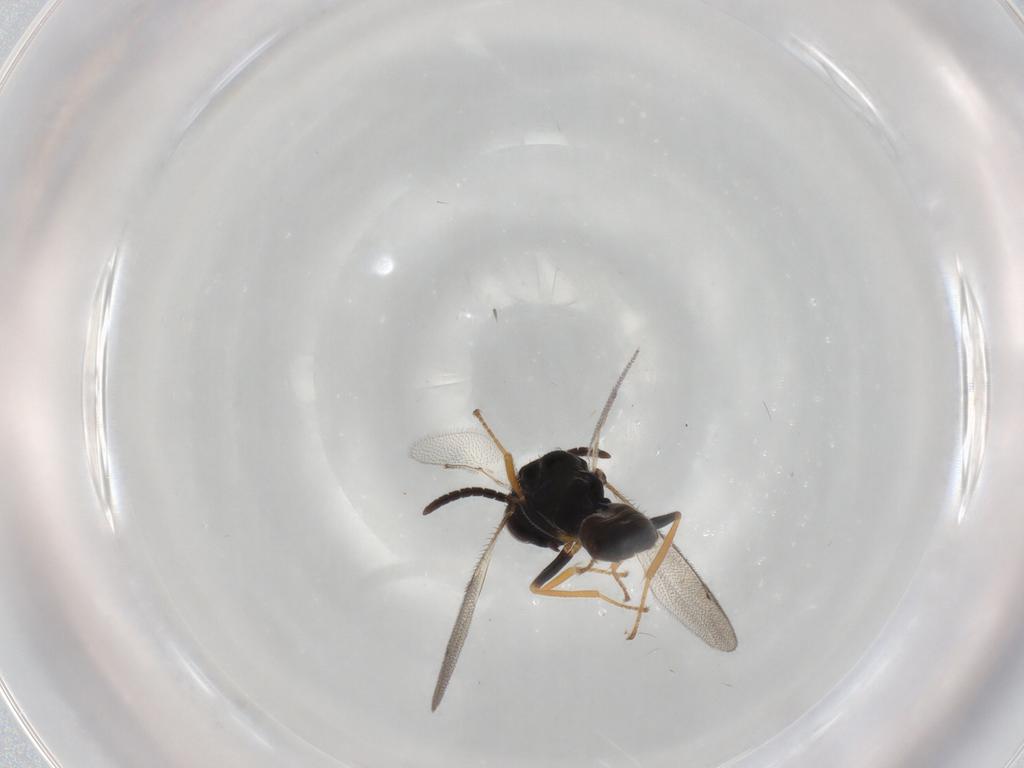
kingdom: Animalia
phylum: Arthropoda
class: Insecta
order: Hymenoptera
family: Pteromalidae
